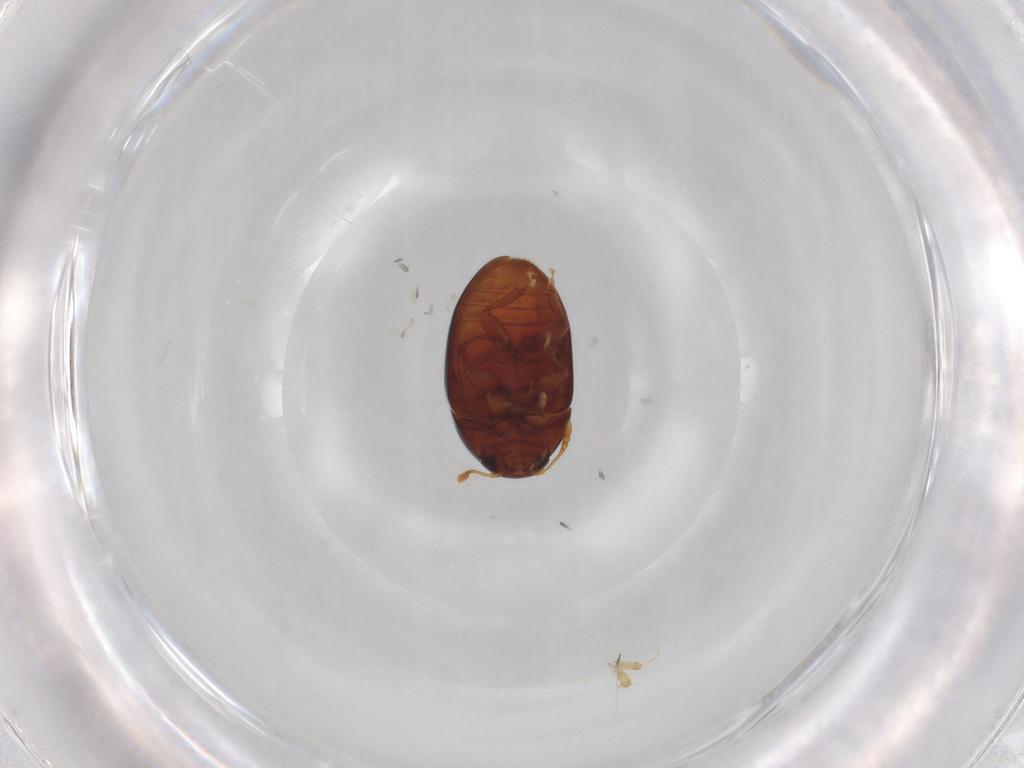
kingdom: Animalia
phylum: Arthropoda
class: Insecta
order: Coleoptera
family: Phalacridae
